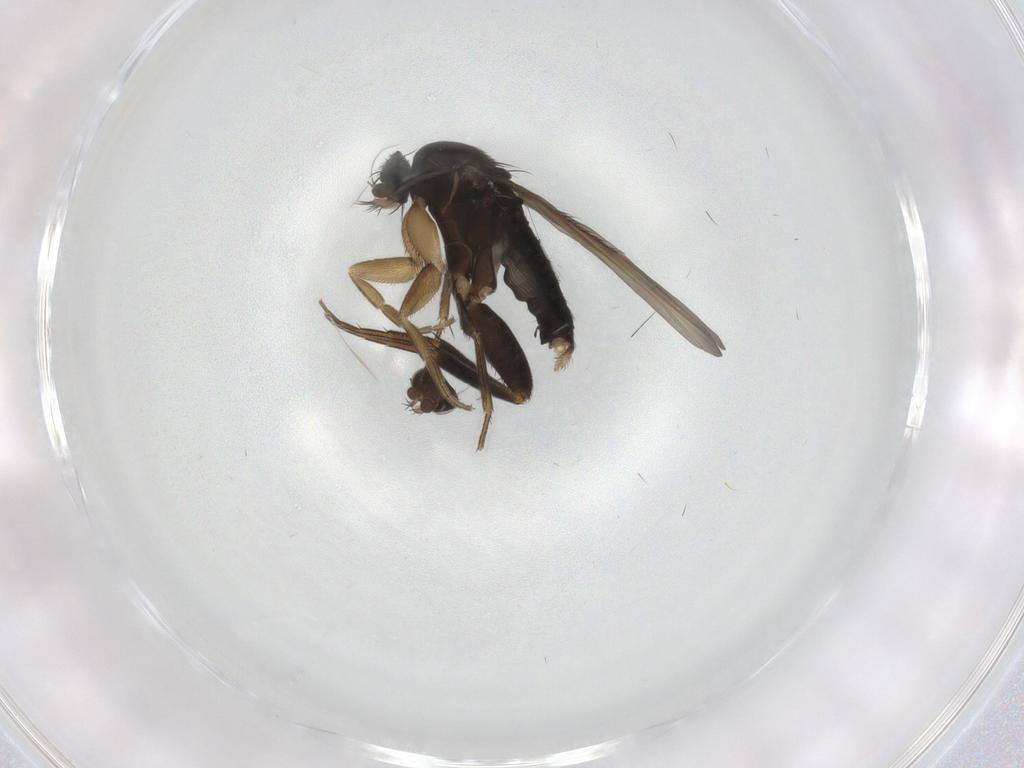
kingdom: Animalia
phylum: Arthropoda
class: Insecta
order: Diptera
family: Phoridae
